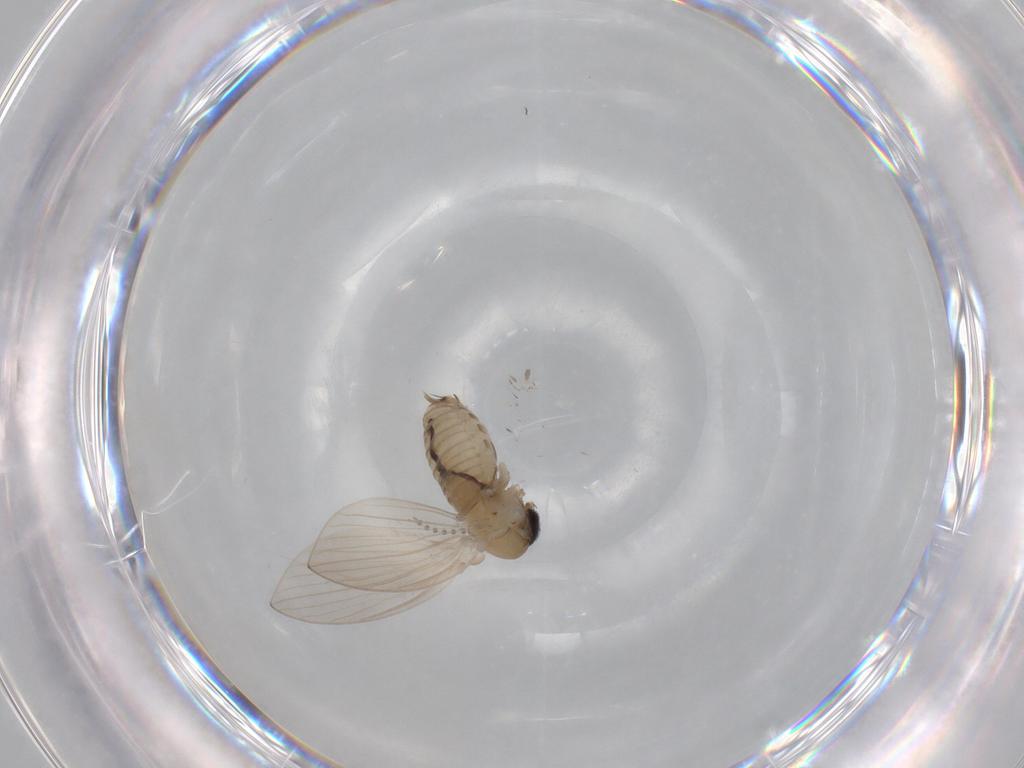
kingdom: Animalia
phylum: Arthropoda
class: Insecta
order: Diptera
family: Psychodidae
